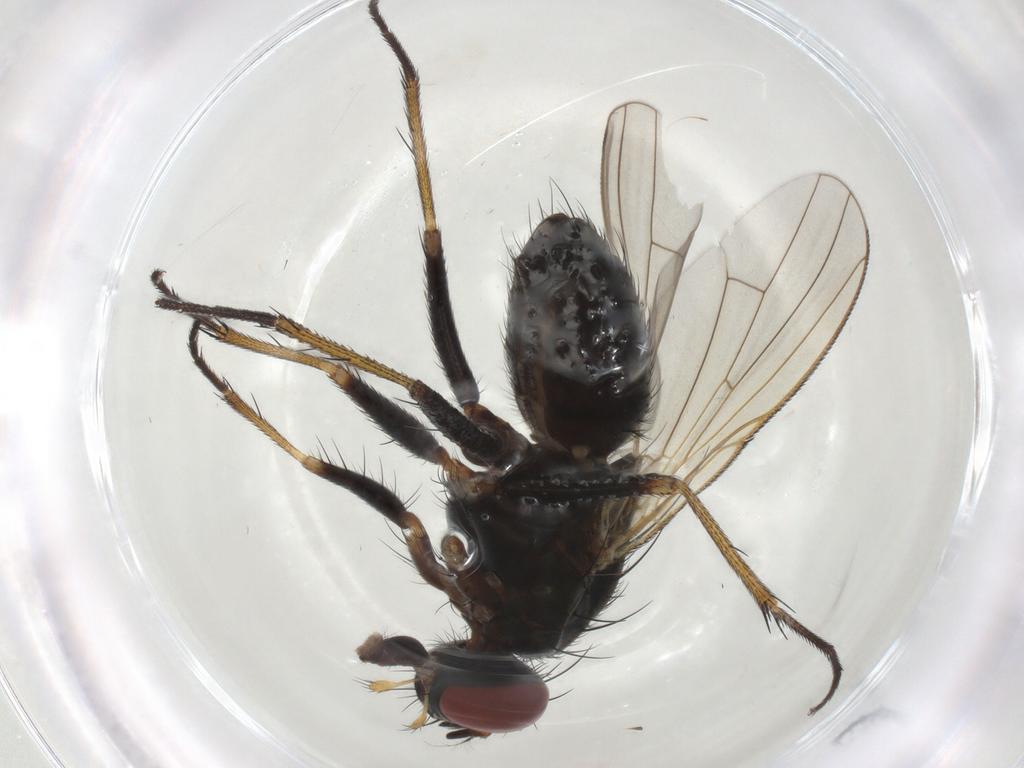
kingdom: Animalia
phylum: Arthropoda
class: Insecta
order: Diptera
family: Muscidae
